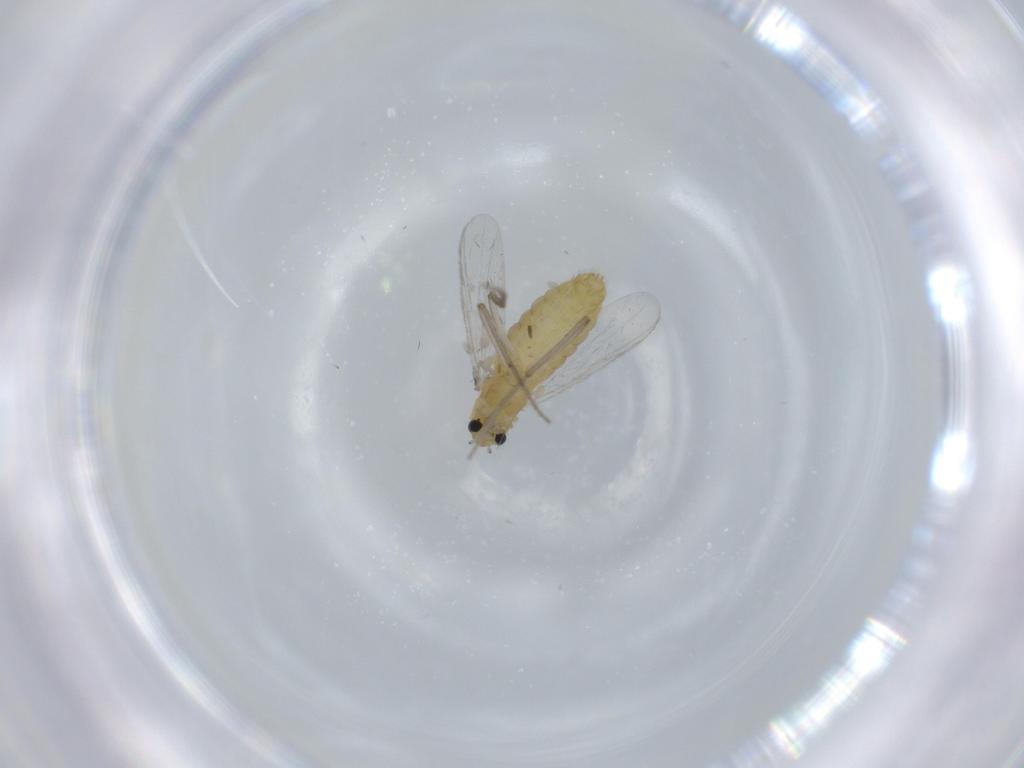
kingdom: Animalia
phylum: Arthropoda
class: Insecta
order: Diptera
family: Chironomidae
